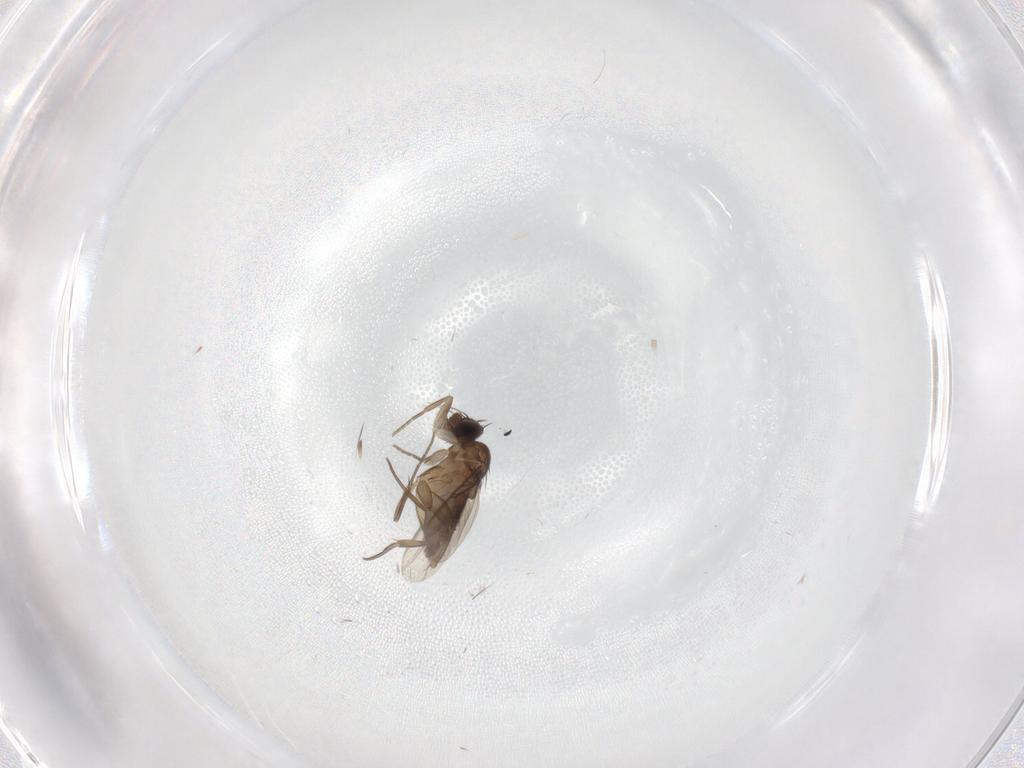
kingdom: Animalia
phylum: Arthropoda
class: Insecta
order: Diptera
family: Phoridae
